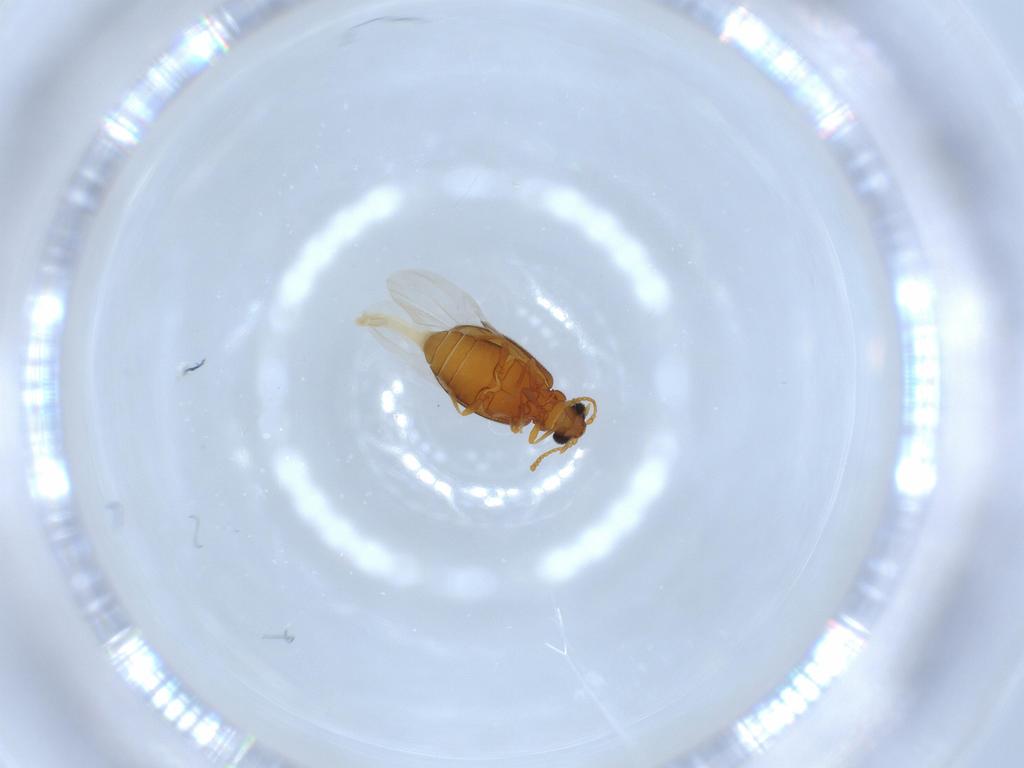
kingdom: Animalia
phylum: Arthropoda
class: Insecta
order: Coleoptera
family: Aderidae
